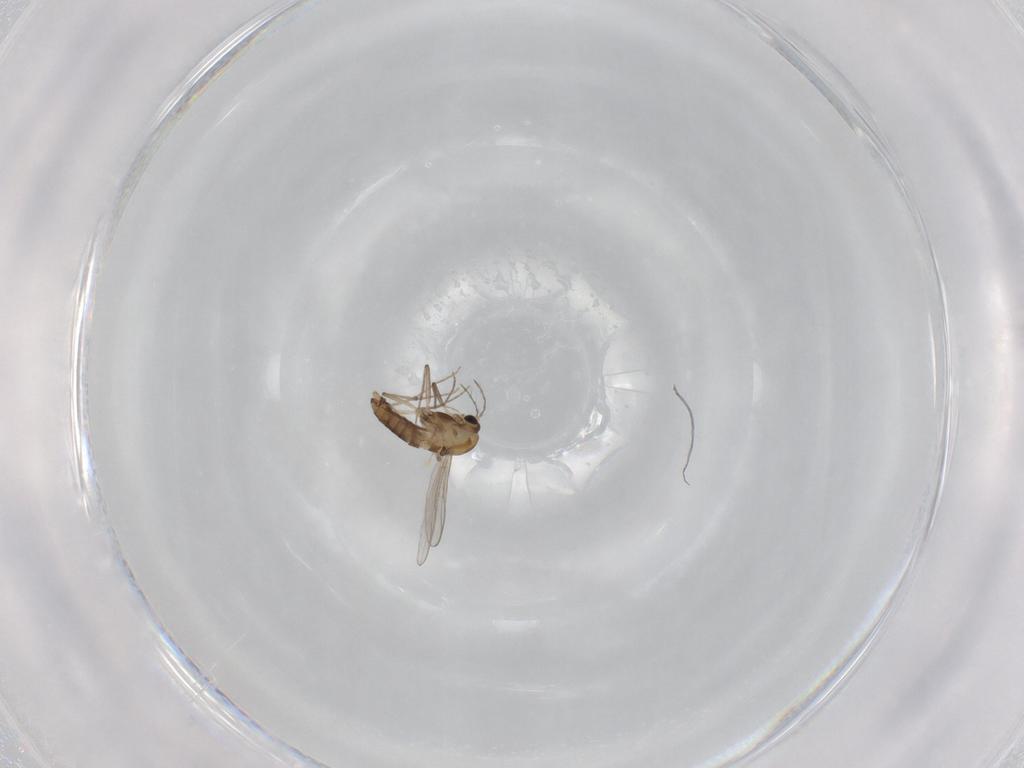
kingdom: Animalia
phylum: Arthropoda
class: Insecta
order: Diptera
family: Chironomidae
